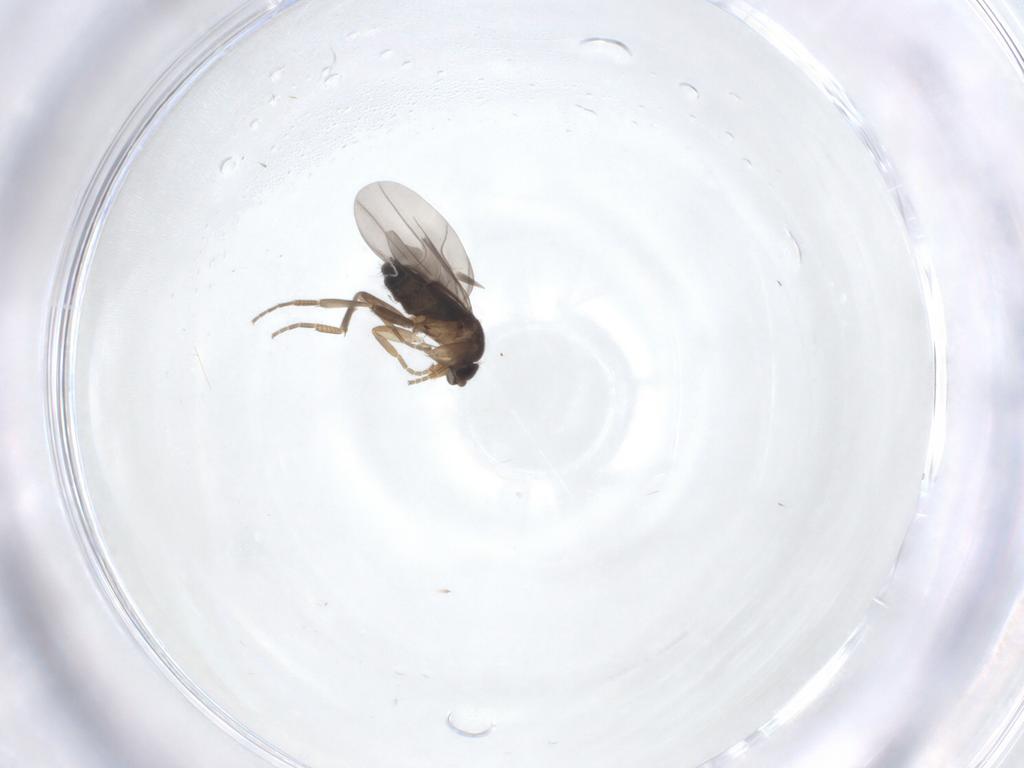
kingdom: Animalia
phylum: Arthropoda
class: Insecta
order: Diptera
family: Phoridae
